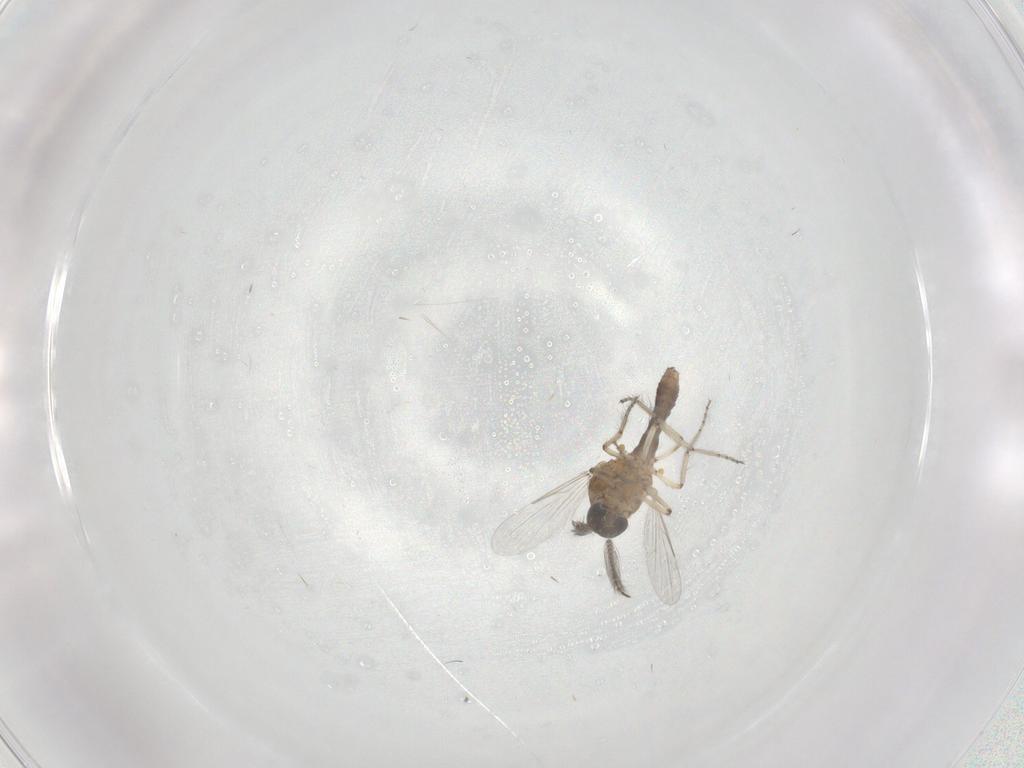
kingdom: Animalia
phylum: Arthropoda
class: Insecta
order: Diptera
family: Ceratopogonidae
